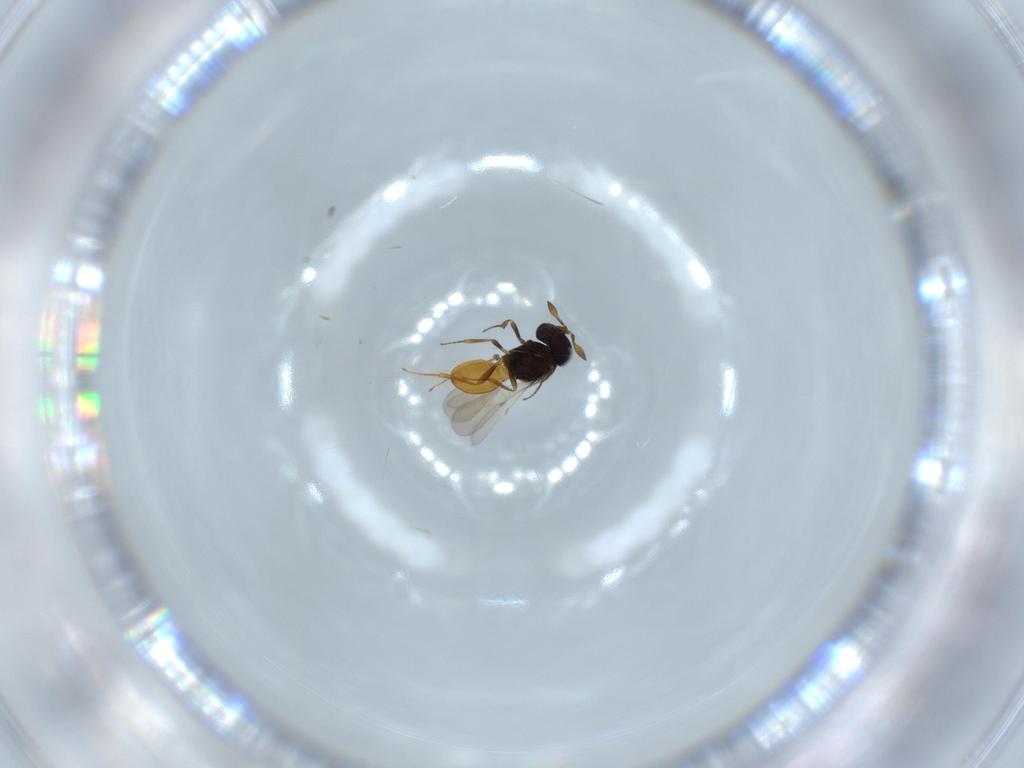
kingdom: Animalia
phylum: Arthropoda
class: Insecta
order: Hymenoptera
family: Scelionidae
